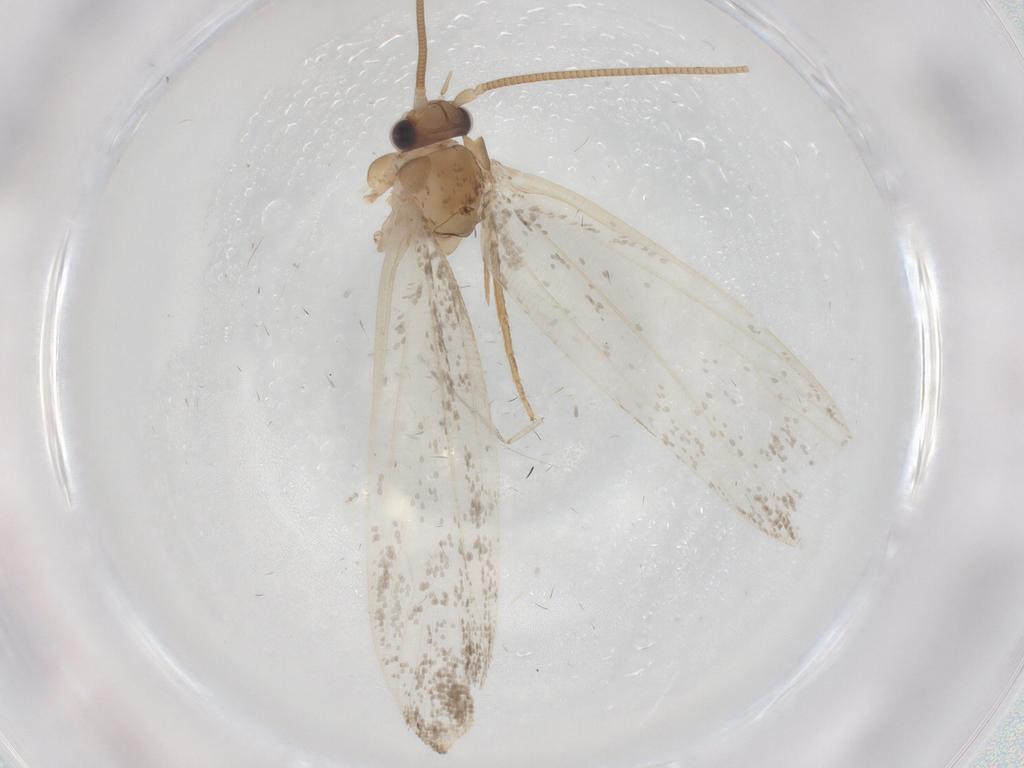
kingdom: Animalia
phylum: Arthropoda
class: Insecta
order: Lepidoptera
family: Tineidae
